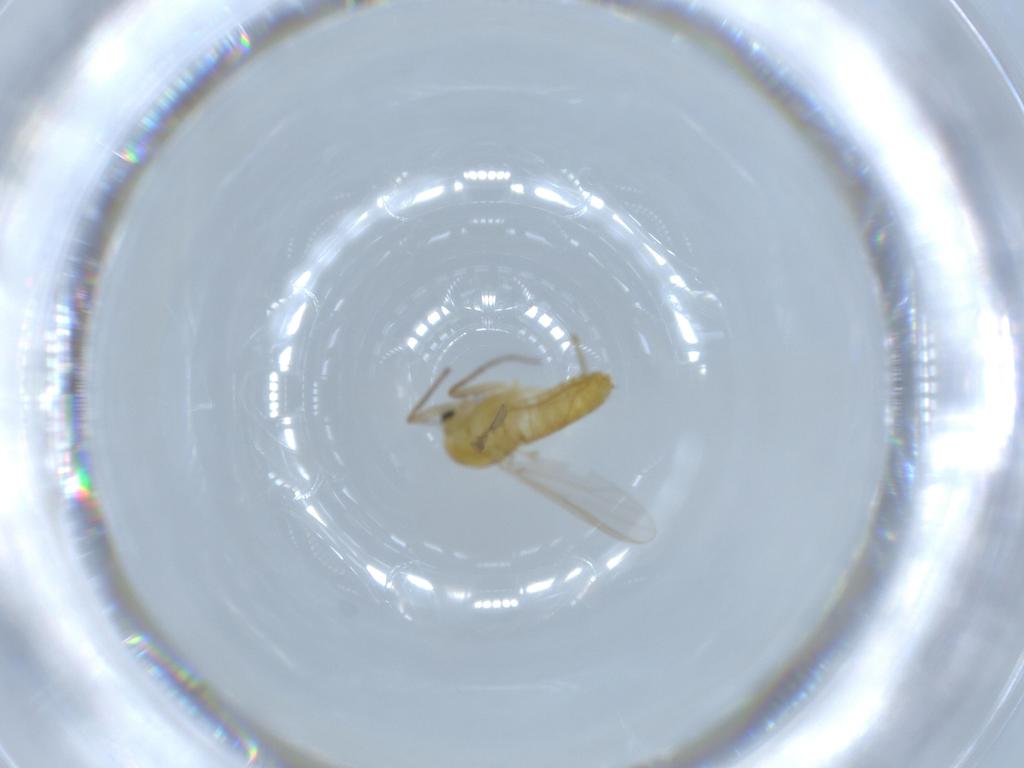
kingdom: Animalia
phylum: Arthropoda
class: Insecta
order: Diptera
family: Chironomidae
